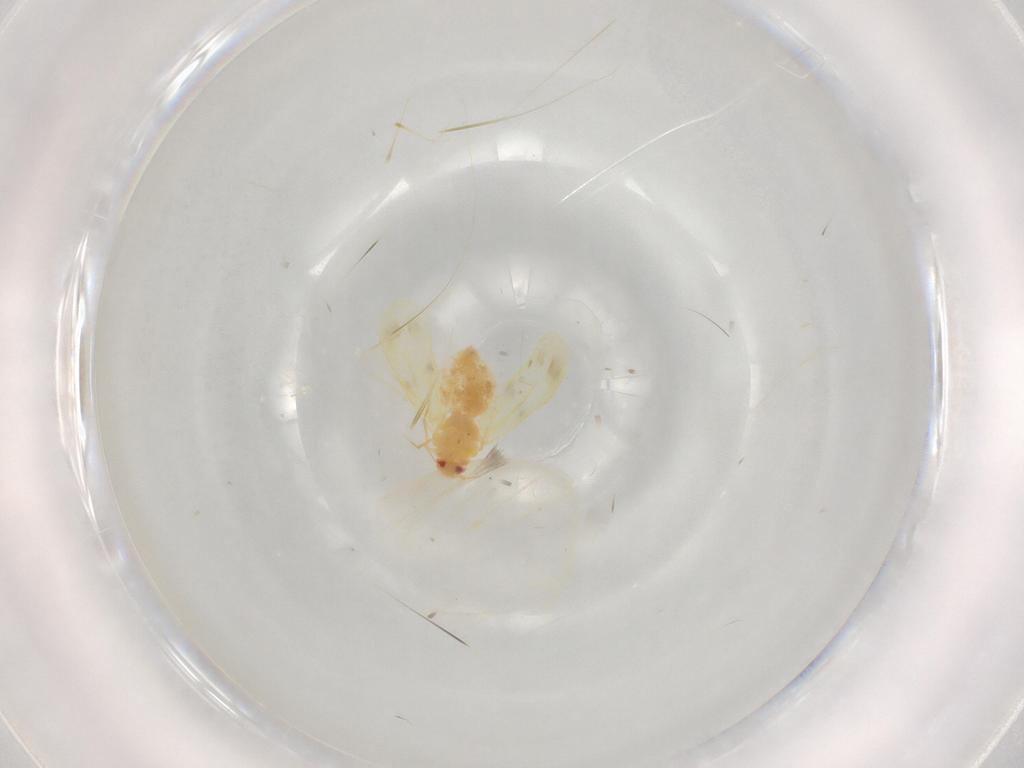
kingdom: Animalia
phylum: Arthropoda
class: Insecta
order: Hemiptera
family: Aleyrodidae
